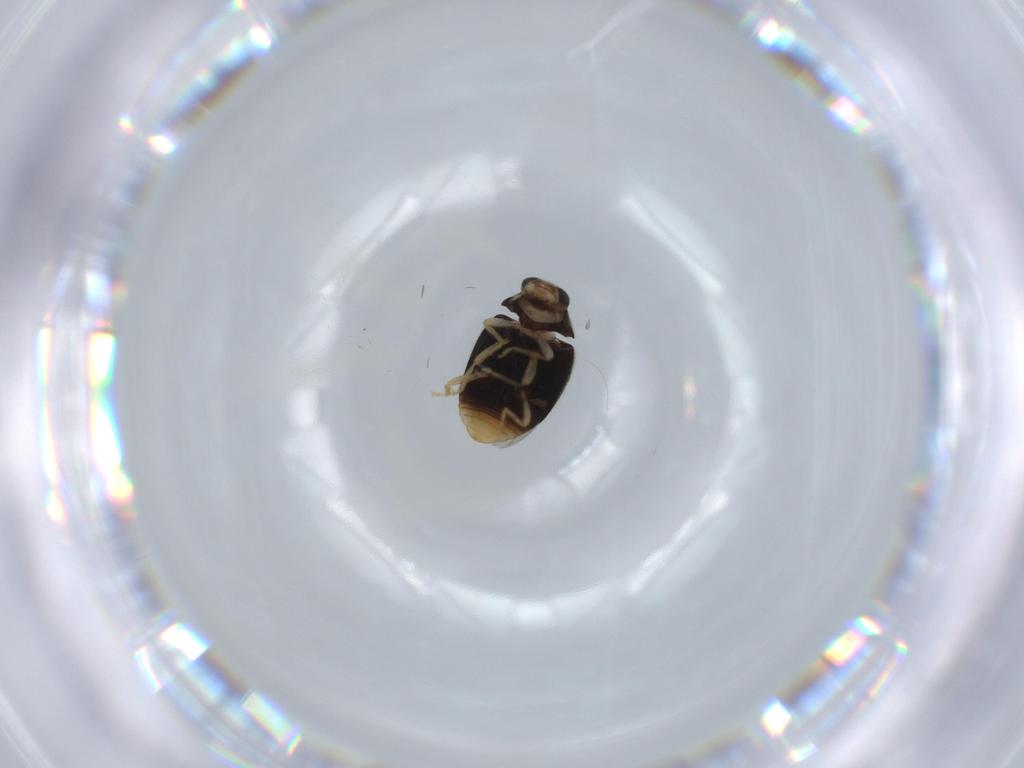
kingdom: Animalia
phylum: Arthropoda
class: Insecta
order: Coleoptera
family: Coccinellidae
